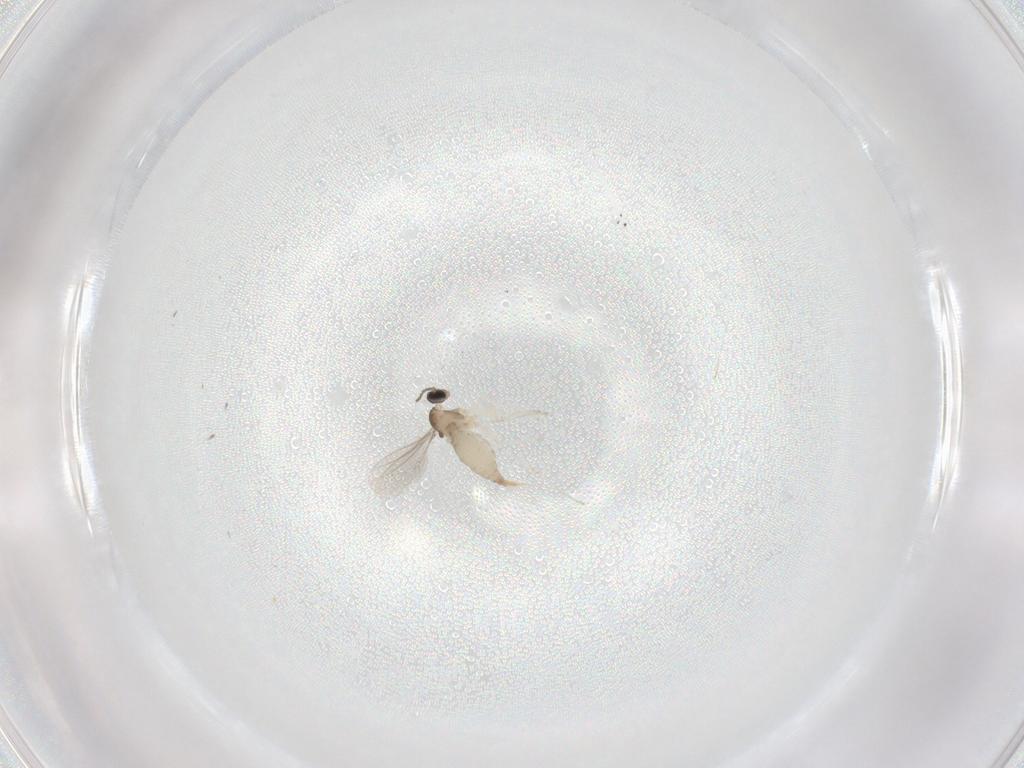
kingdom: Animalia
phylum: Arthropoda
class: Insecta
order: Diptera
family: Cecidomyiidae
